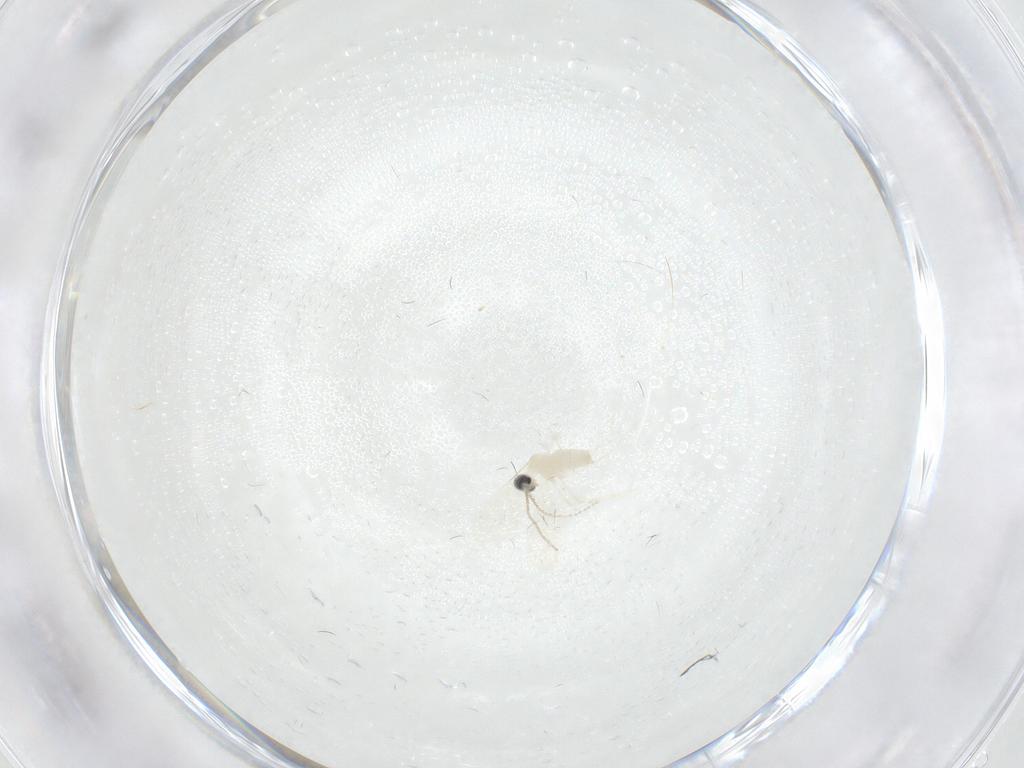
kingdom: Animalia
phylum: Arthropoda
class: Insecta
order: Diptera
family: Cecidomyiidae
